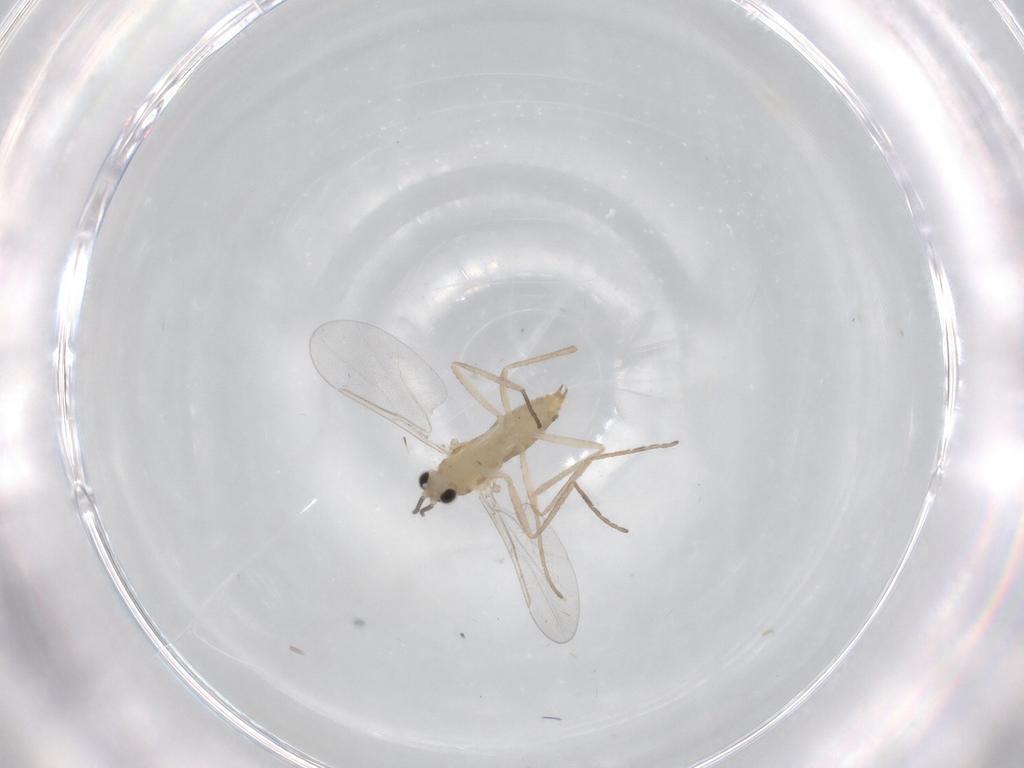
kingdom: Animalia
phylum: Arthropoda
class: Insecta
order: Diptera
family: Cecidomyiidae
